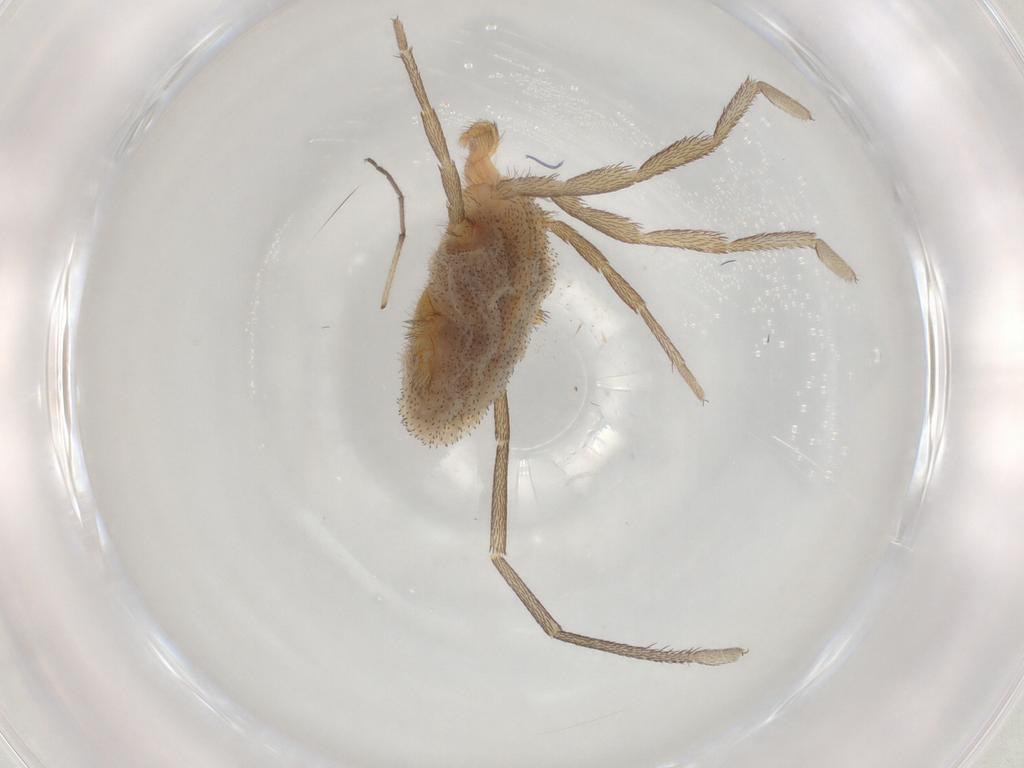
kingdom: Animalia
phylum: Arthropoda
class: Arachnida
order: Trombidiformes
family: Erythraeidae
